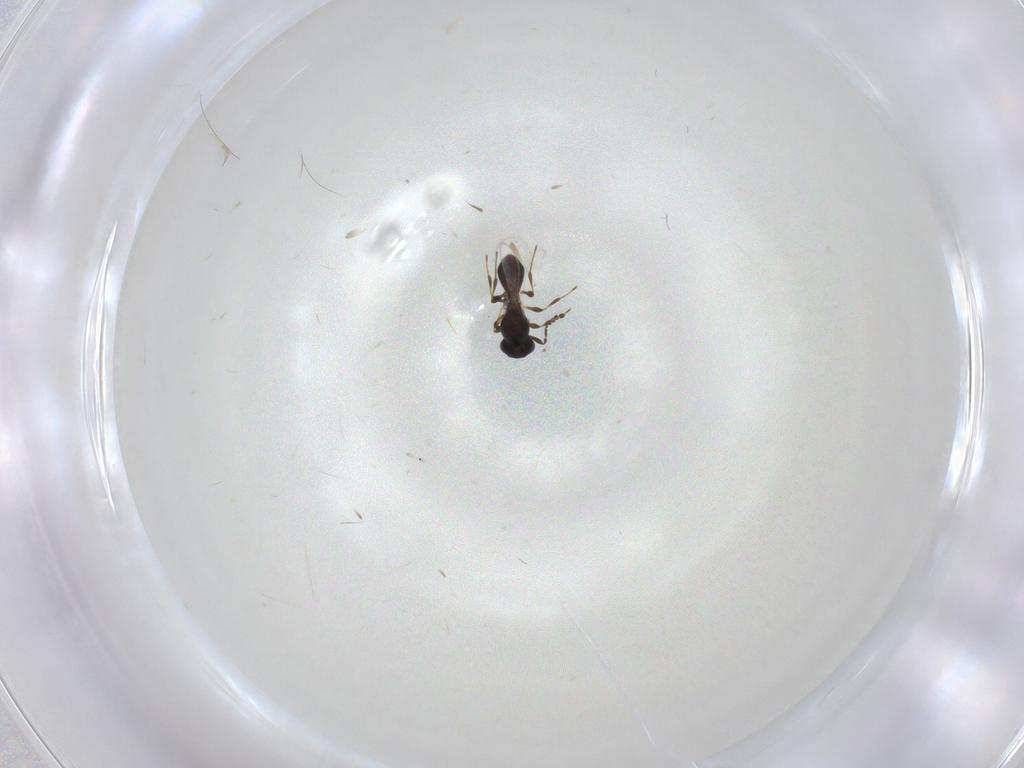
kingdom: Animalia
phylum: Arthropoda
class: Insecta
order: Hymenoptera
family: Platygastridae
